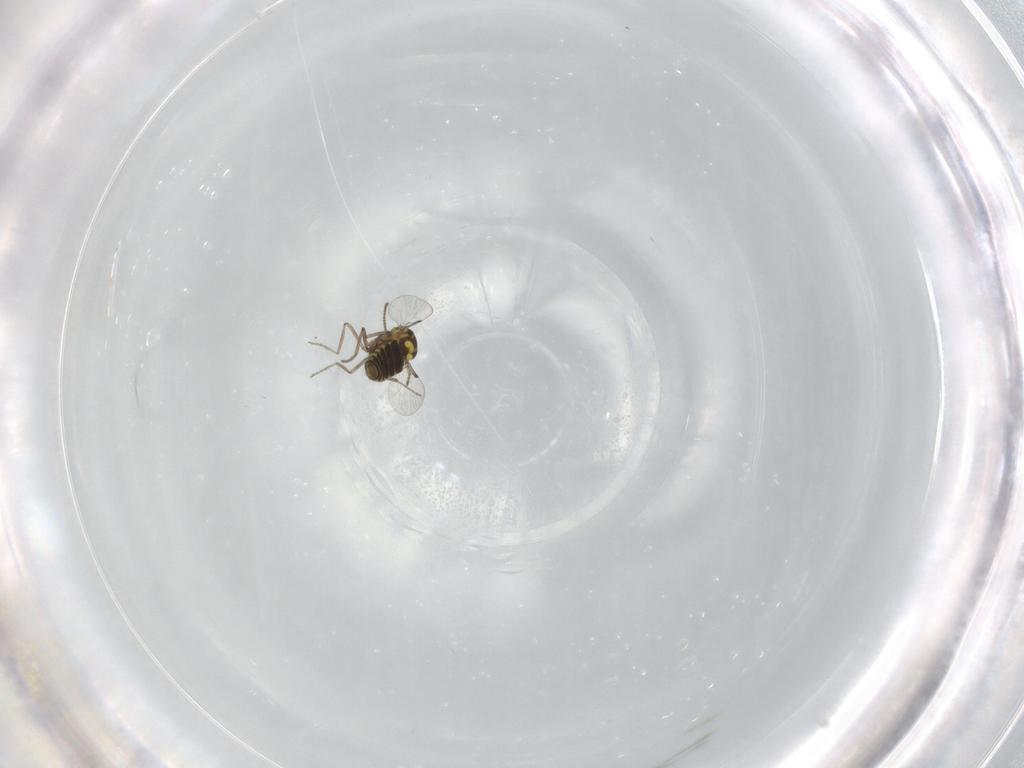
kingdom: Animalia
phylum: Arthropoda
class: Insecta
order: Diptera
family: Ceratopogonidae
